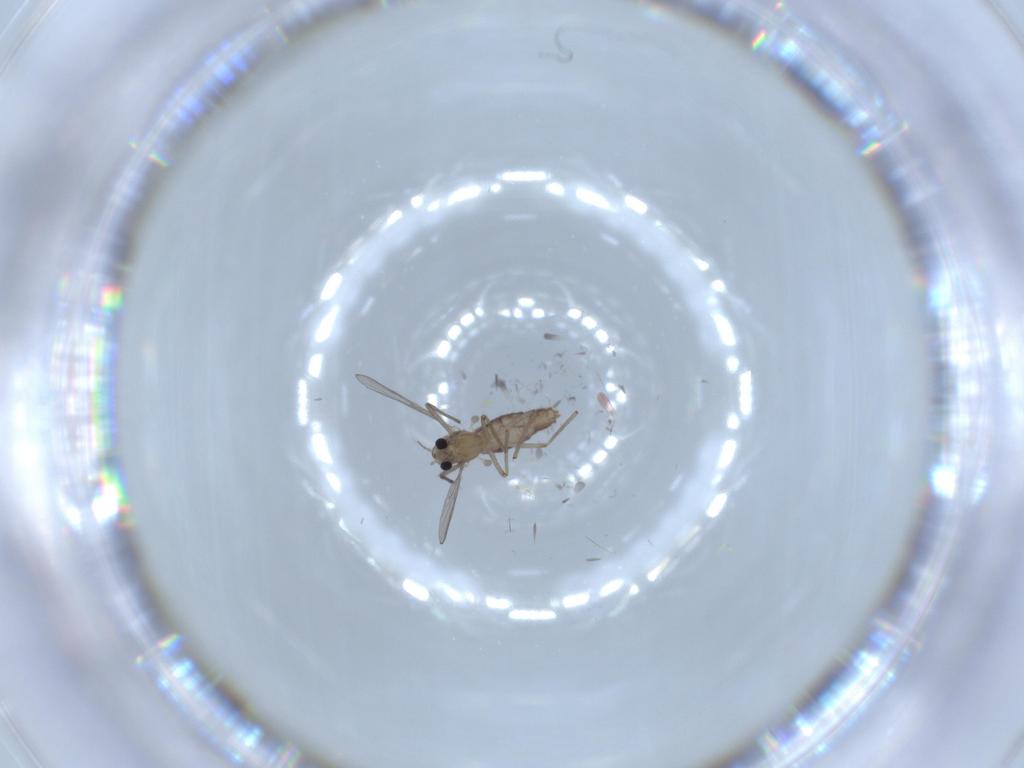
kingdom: Animalia
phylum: Arthropoda
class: Insecta
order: Diptera
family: Chironomidae
